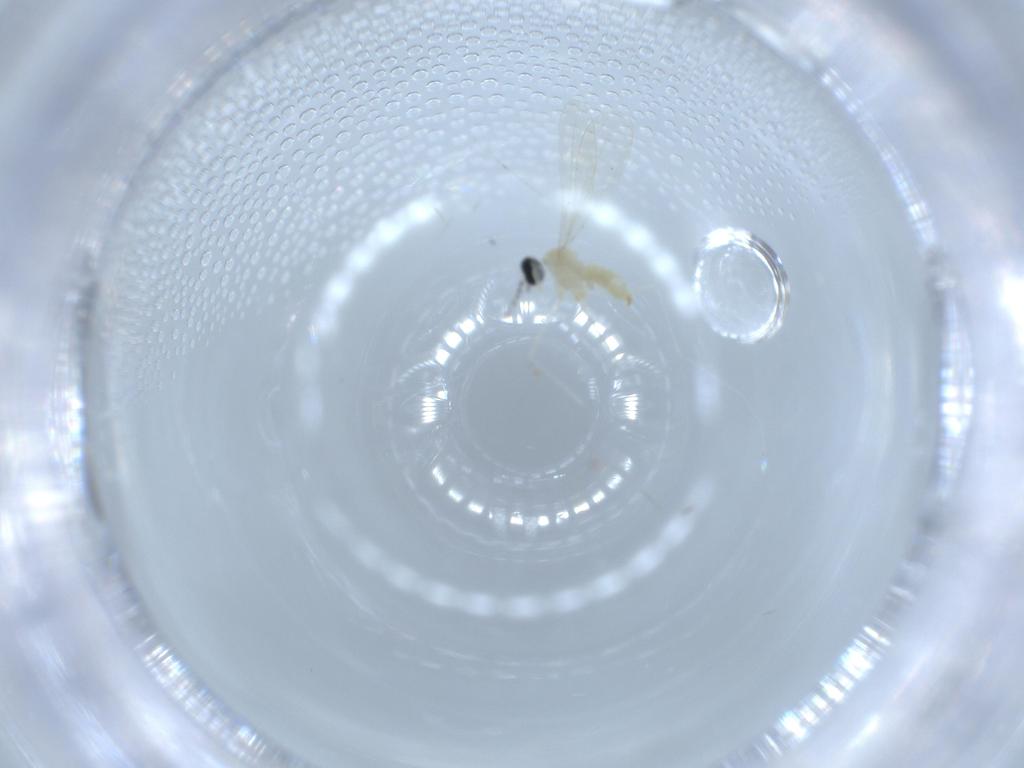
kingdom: Animalia
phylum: Arthropoda
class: Insecta
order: Diptera
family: Cecidomyiidae
